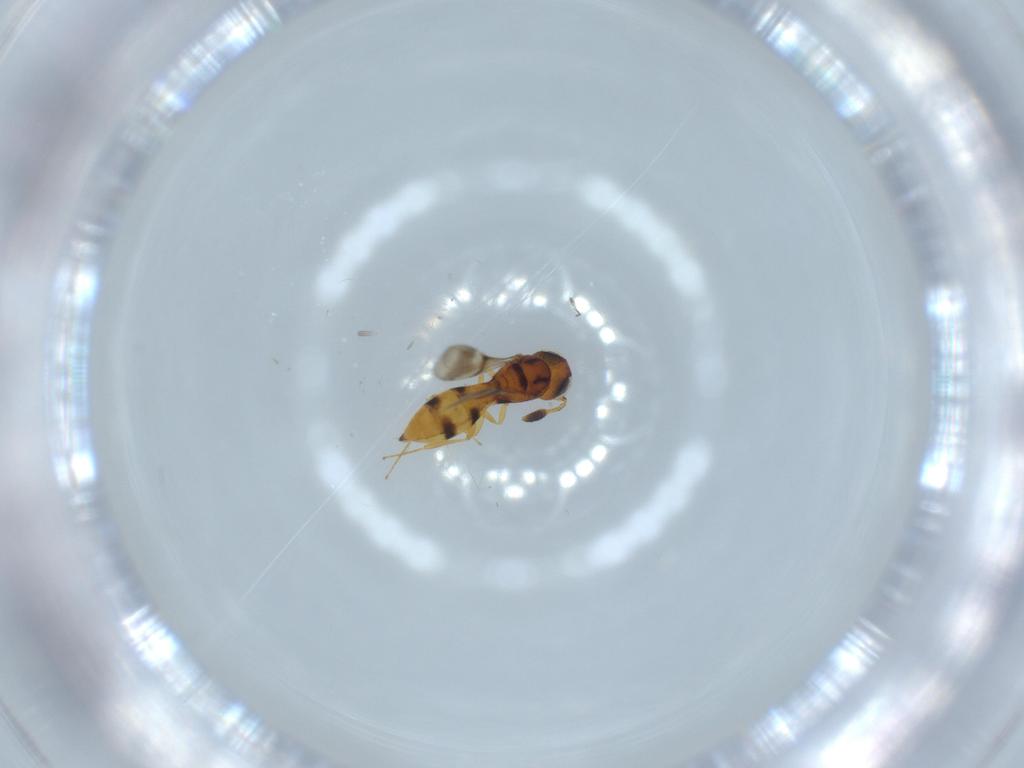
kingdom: Animalia
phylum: Arthropoda
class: Insecta
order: Hymenoptera
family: Scelionidae
